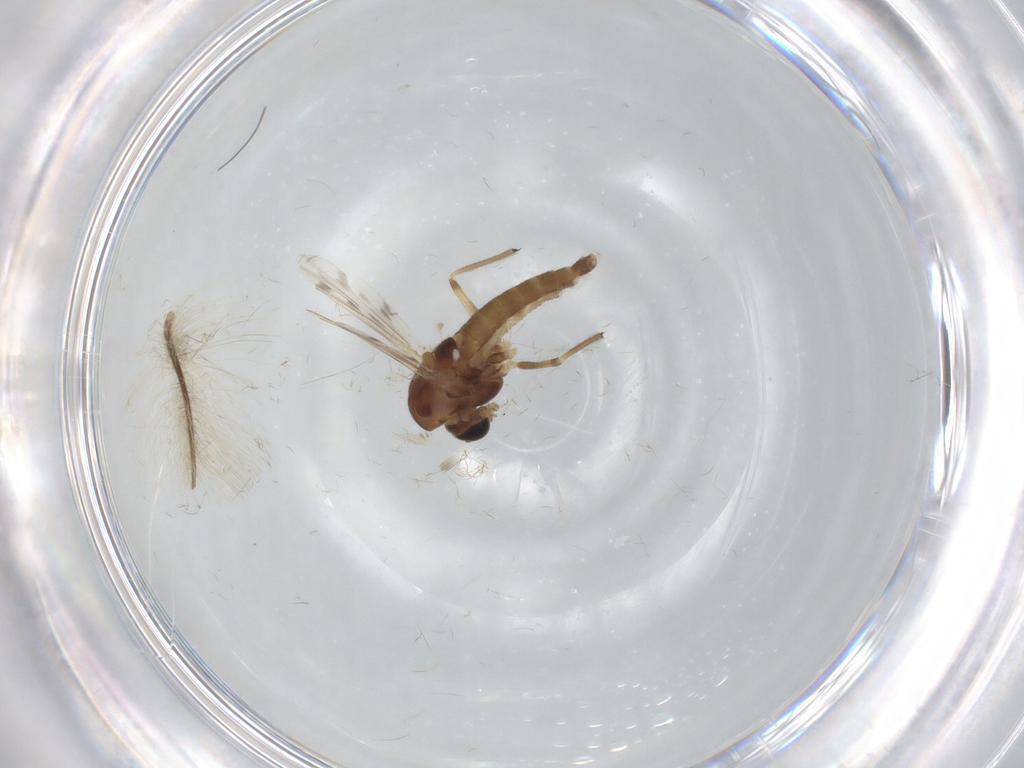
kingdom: Animalia
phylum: Arthropoda
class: Insecta
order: Diptera
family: Chironomidae
